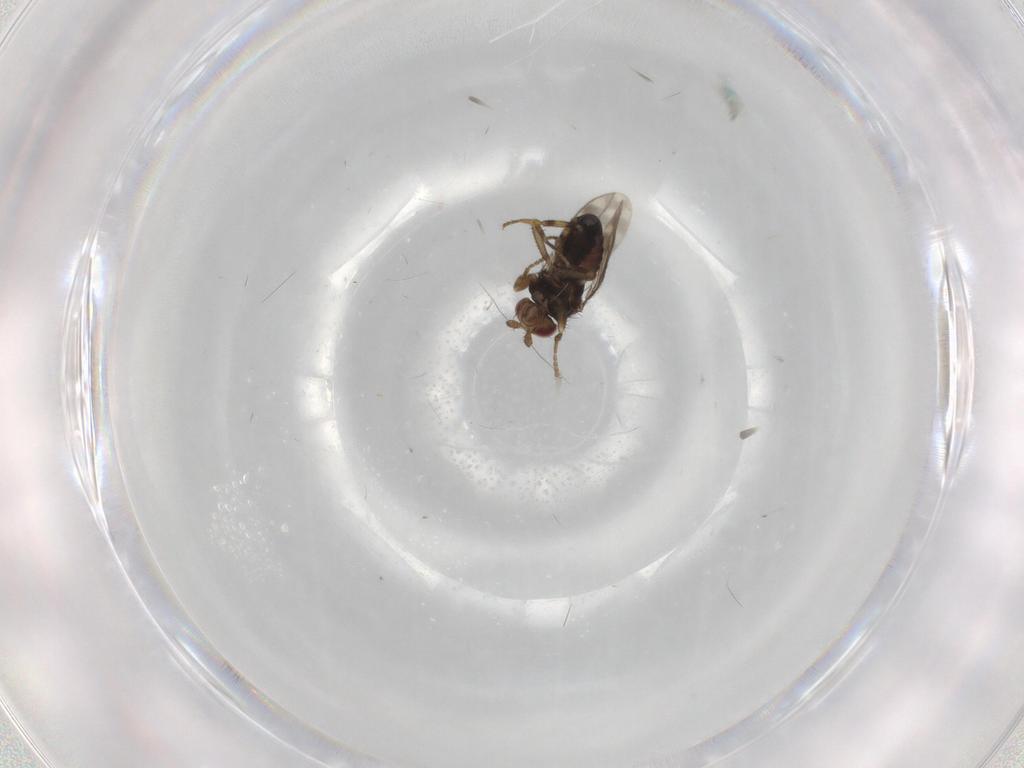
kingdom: Animalia
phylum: Arthropoda
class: Insecta
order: Diptera
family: Sphaeroceridae
